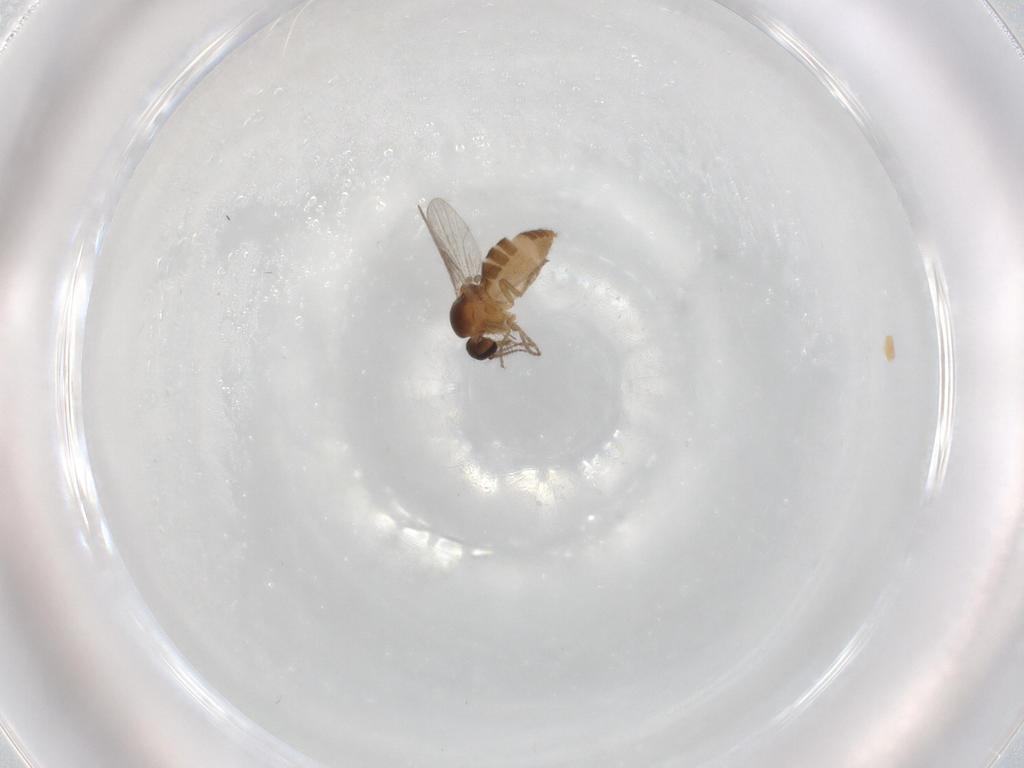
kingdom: Animalia
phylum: Arthropoda
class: Insecta
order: Diptera
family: Ceratopogonidae
